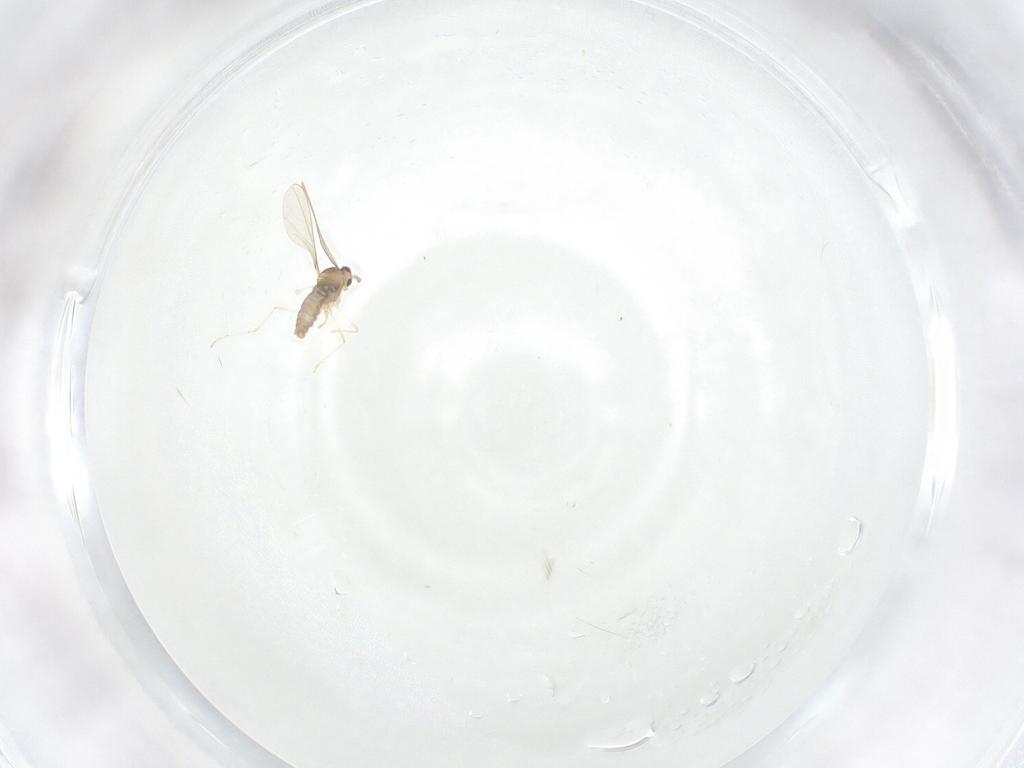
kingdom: Animalia
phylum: Arthropoda
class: Insecta
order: Diptera
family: Cecidomyiidae
